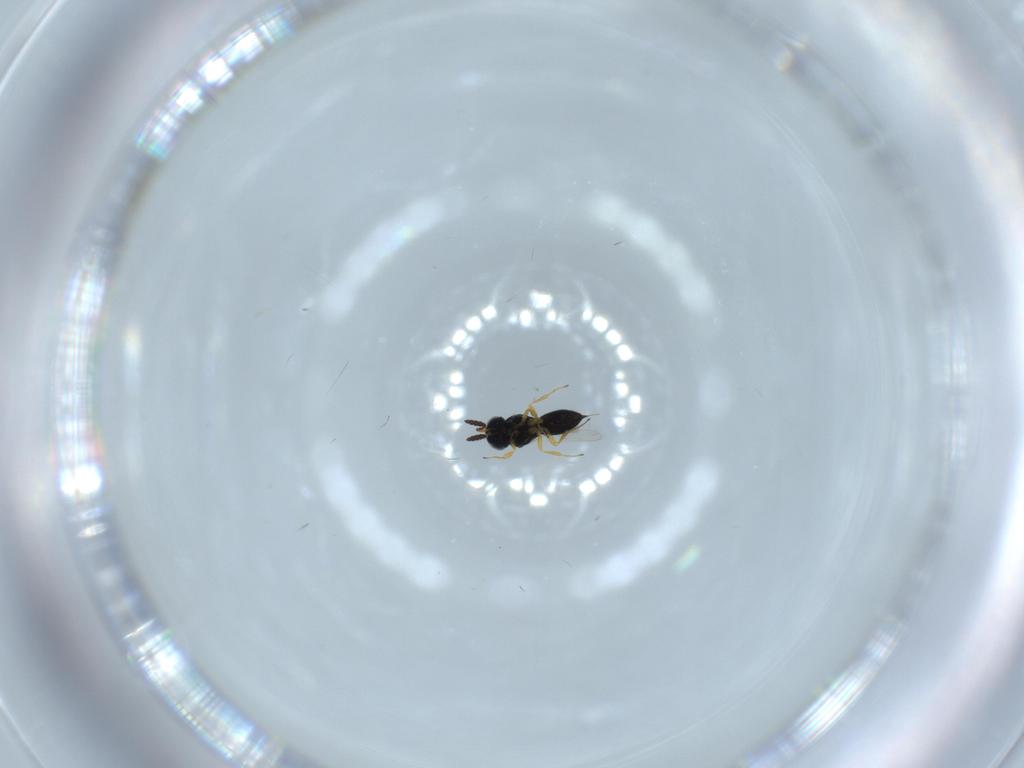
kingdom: Animalia
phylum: Arthropoda
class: Insecta
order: Hymenoptera
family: Scelionidae
